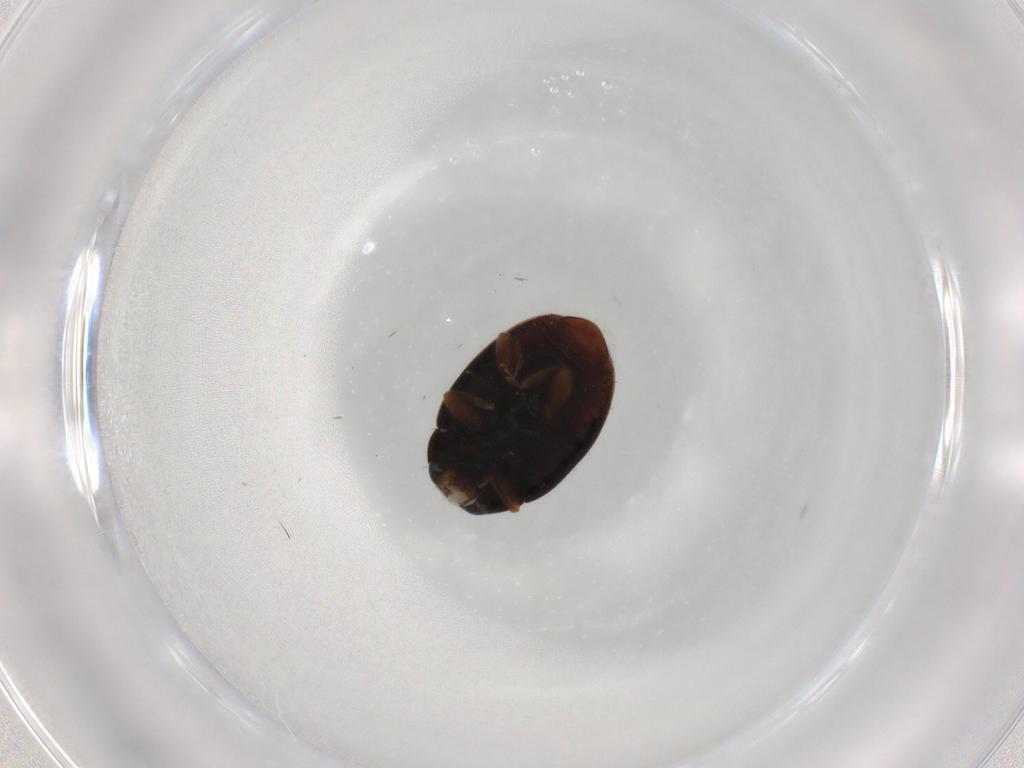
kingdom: Animalia
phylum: Arthropoda
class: Insecta
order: Coleoptera
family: Coccinellidae
